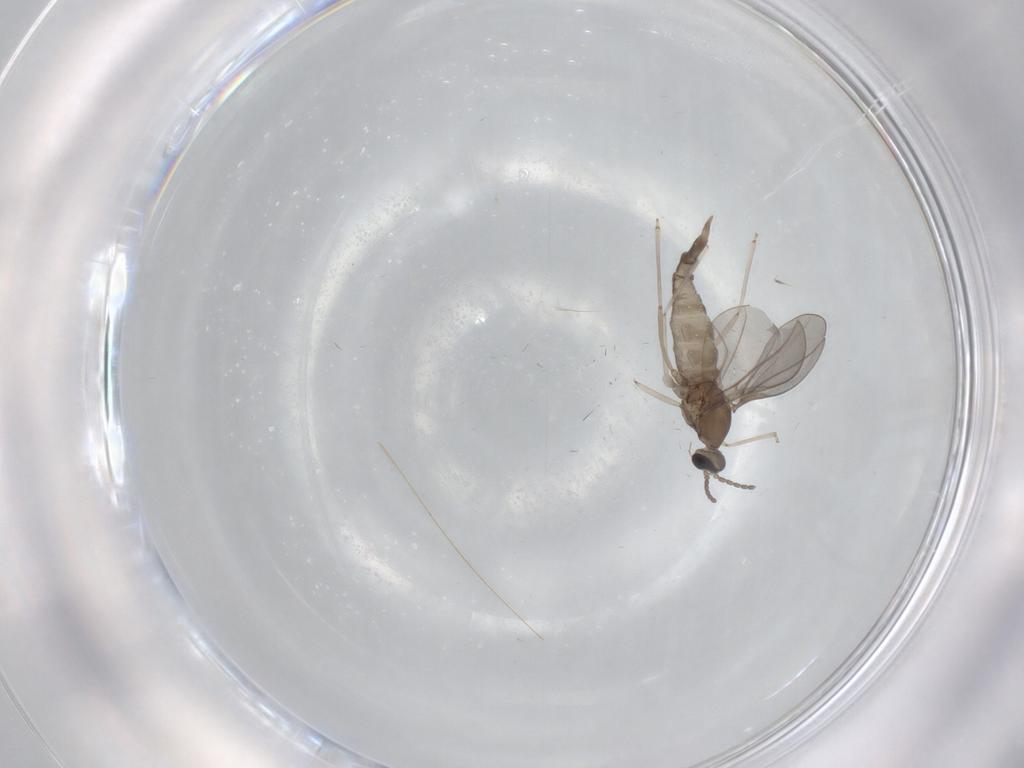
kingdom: Animalia
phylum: Arthropoda
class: Insecta
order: Diptera
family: Cecidomyiidae
